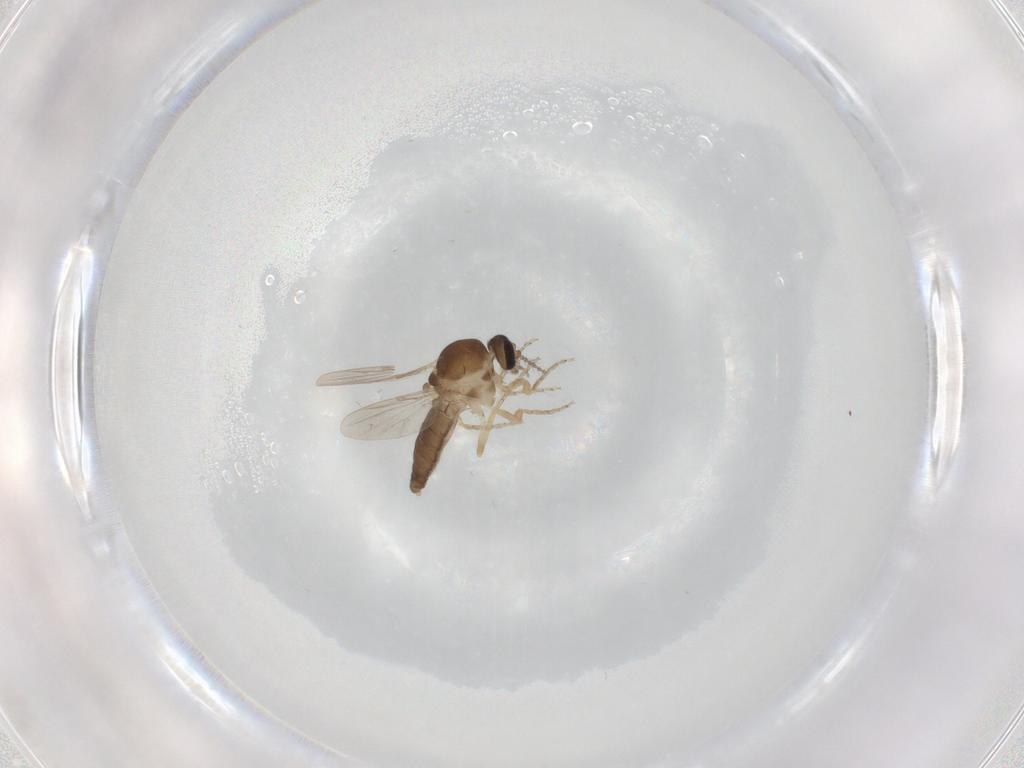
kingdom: Animalia
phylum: Arthropoda
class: Insecta
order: Diptera
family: Ceratopogonidae
